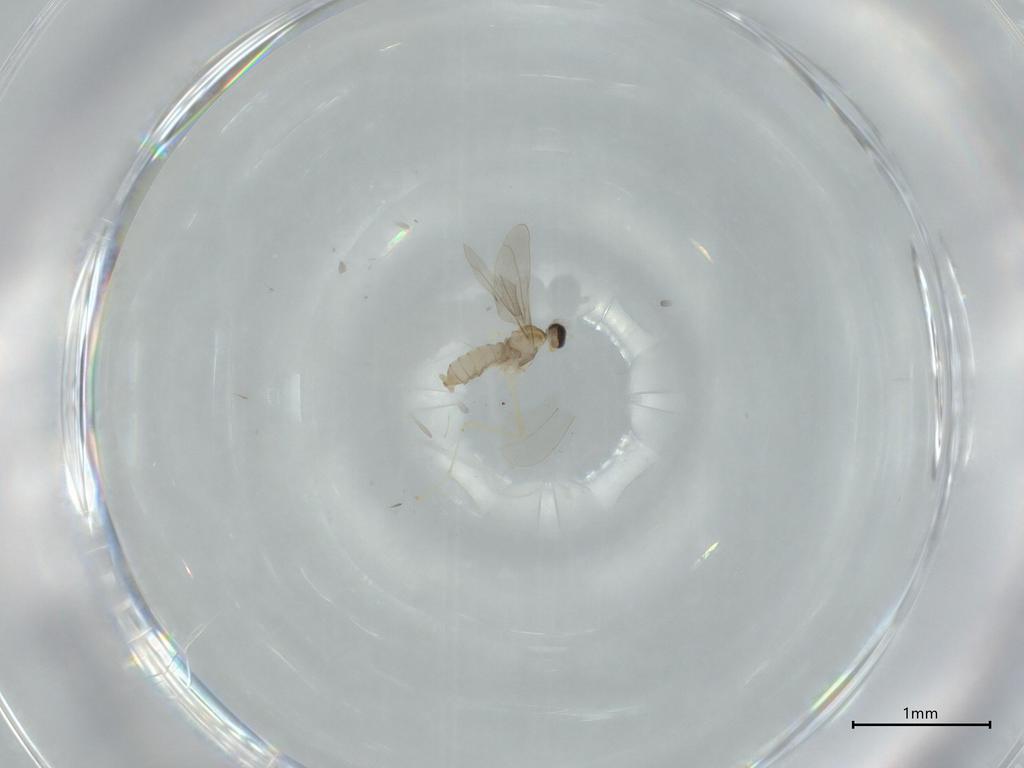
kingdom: Animalia
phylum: Arthropoda
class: Insecta
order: Diptera
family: Cecidomyiidae
